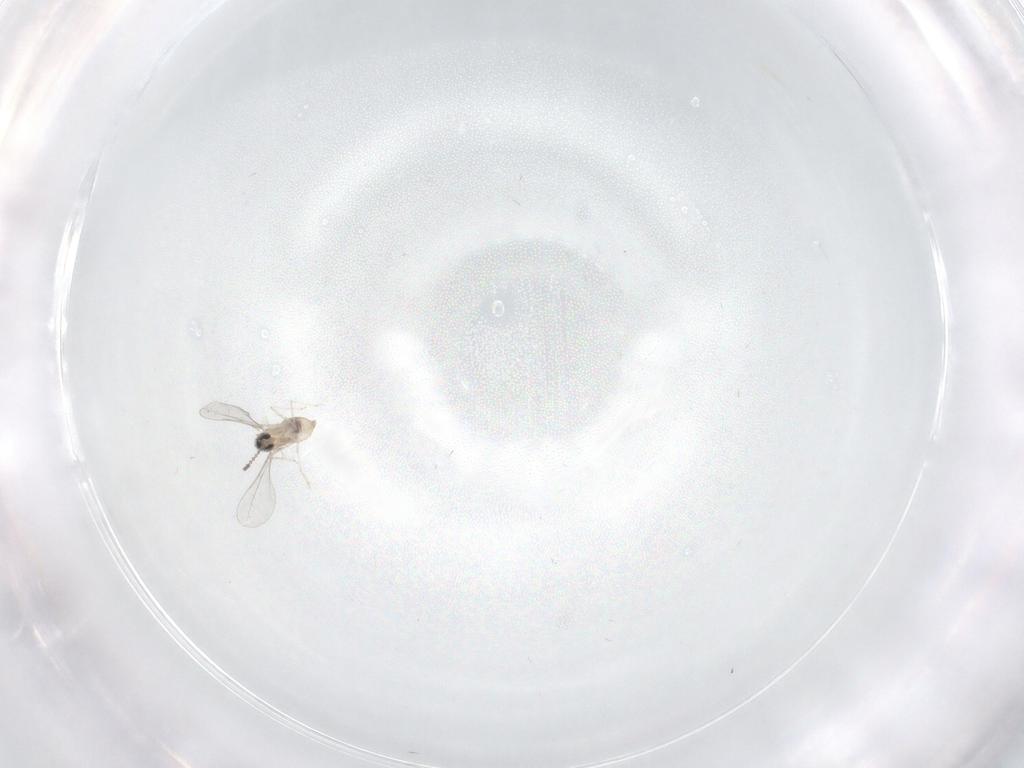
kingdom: Animalia
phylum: Arthropoda
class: Insecta
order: Diptera
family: Cecidomyiidae
